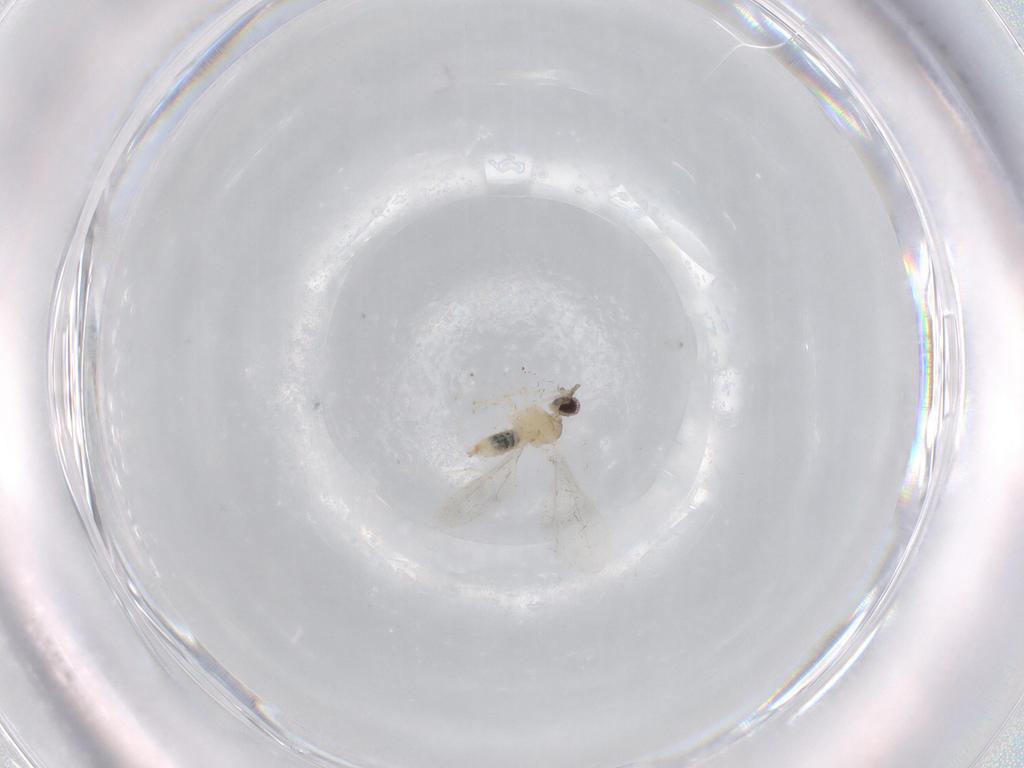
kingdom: Animalia
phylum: Arthropoda
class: Insecta
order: Diptera
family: Cecidomyiidae
